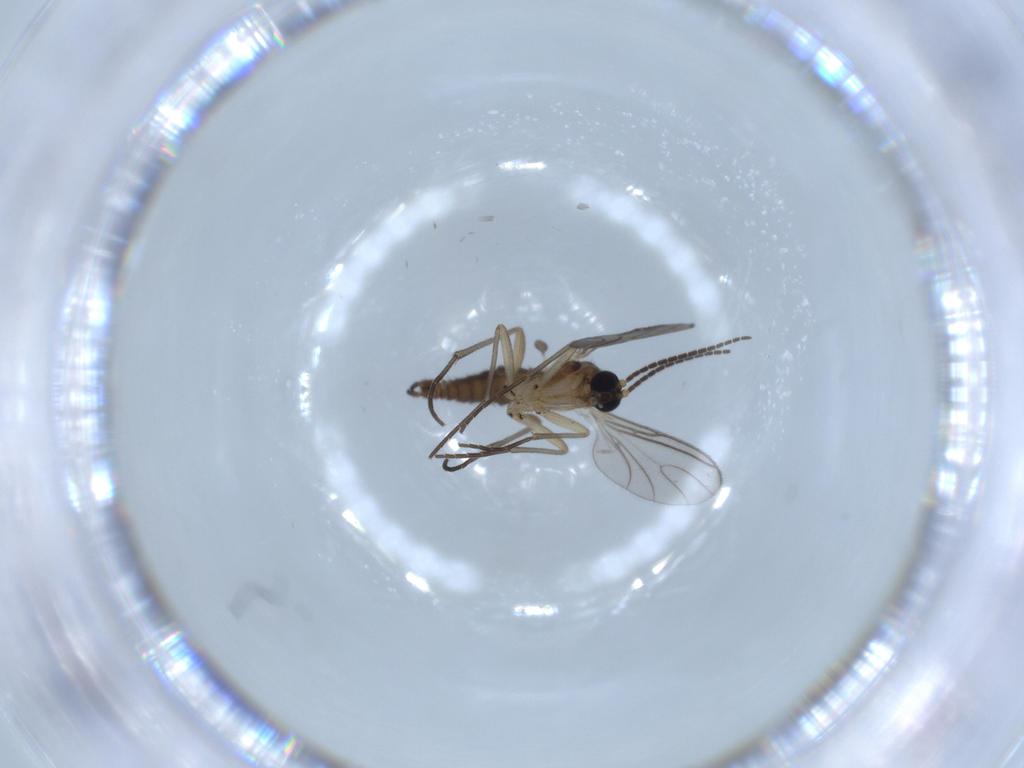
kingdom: Animalia
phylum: Arthropoda
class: Insecta
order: Diptera
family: Sciaridae
